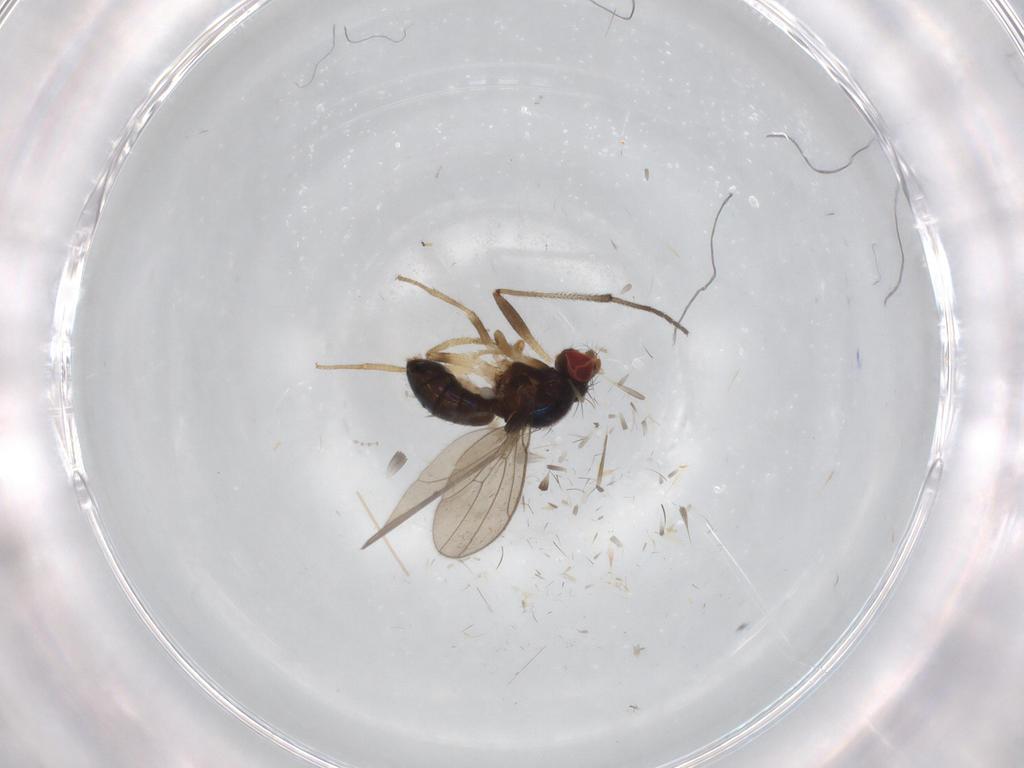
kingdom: Animalia
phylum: Arthropoda
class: Insecta
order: Diptera
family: Drosophilidae
